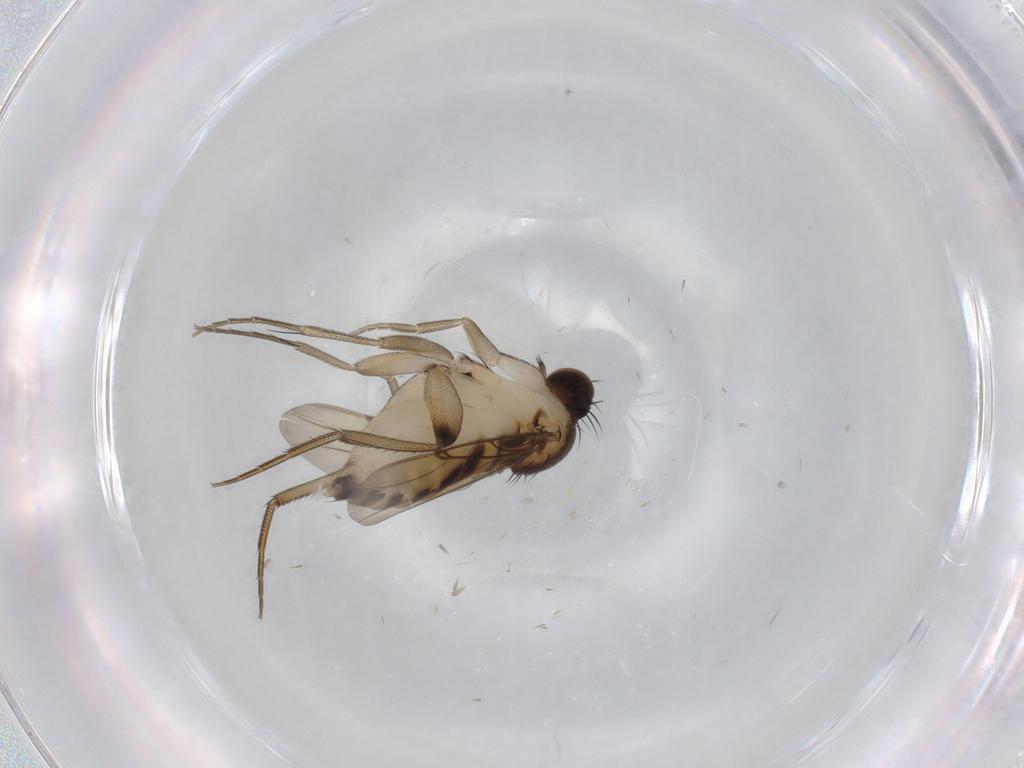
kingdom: Animalia
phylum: Arthropoda
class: Insecta
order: Diptera
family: Phoridae
